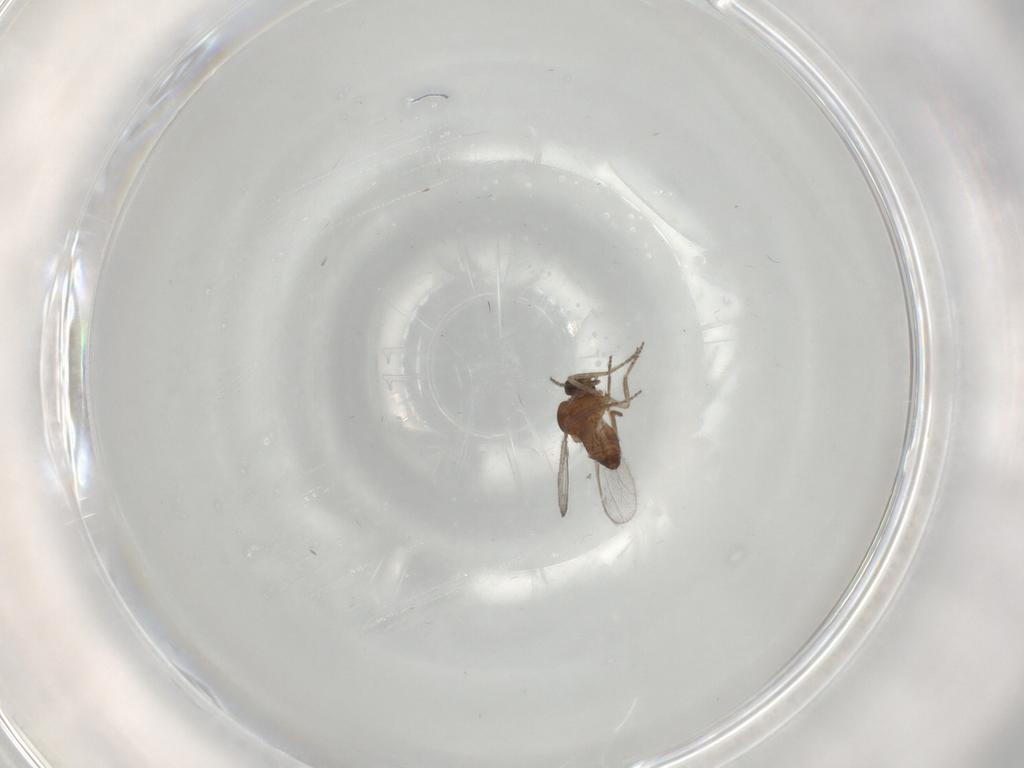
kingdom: Animalia
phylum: Arthropoda
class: Insecta
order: Diptera
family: Ceratopogonidae
